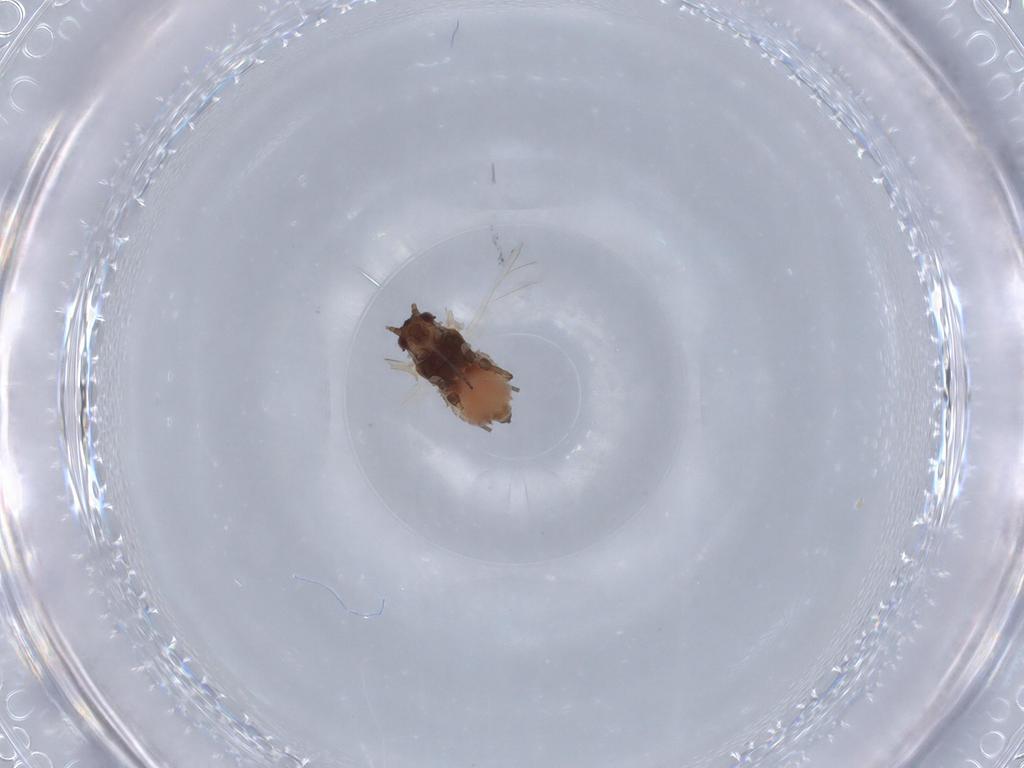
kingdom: Animalia
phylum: Arthropoda
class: Insecta
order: Hemiptera
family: Aphididae
